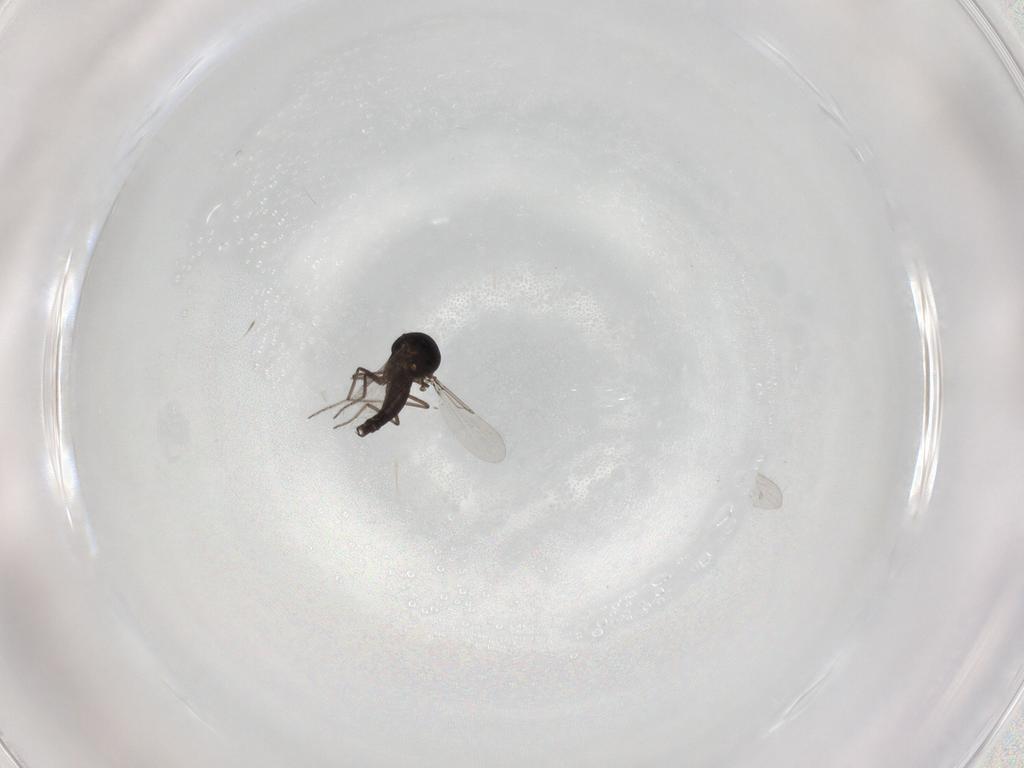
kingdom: Animalia
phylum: Arthropoda
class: Insecta
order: Diptera
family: Ceratopogonidae
